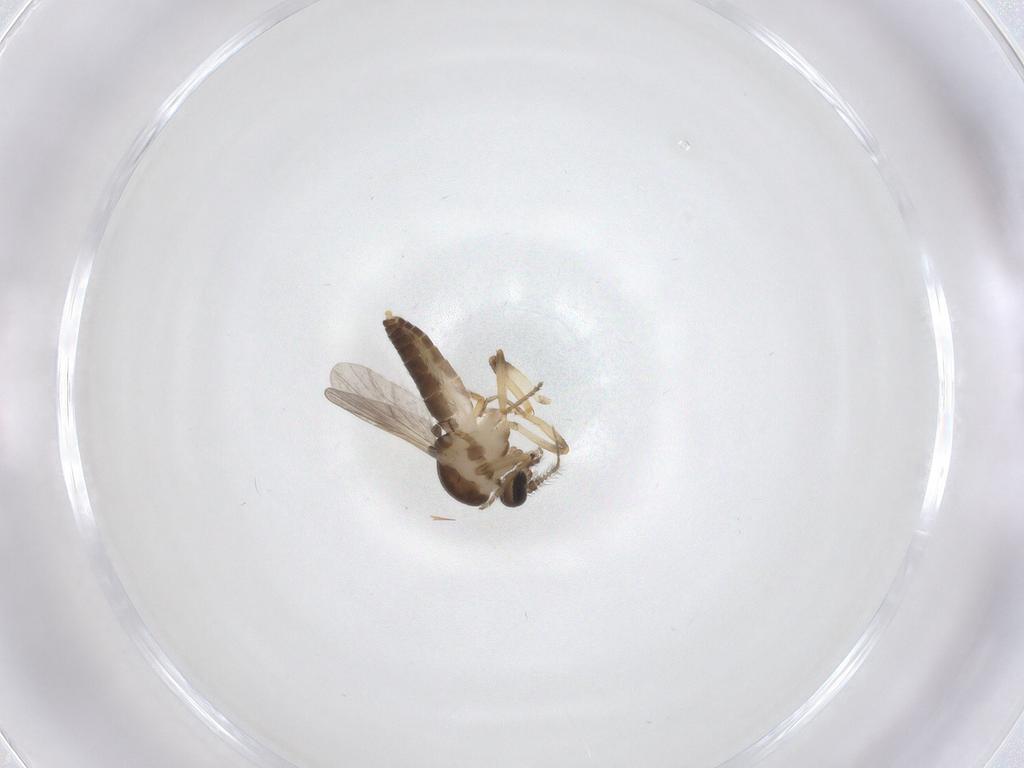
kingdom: Animalia
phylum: Arthropoda
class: Insecta
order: Diptera
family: Ceratopogonidae
